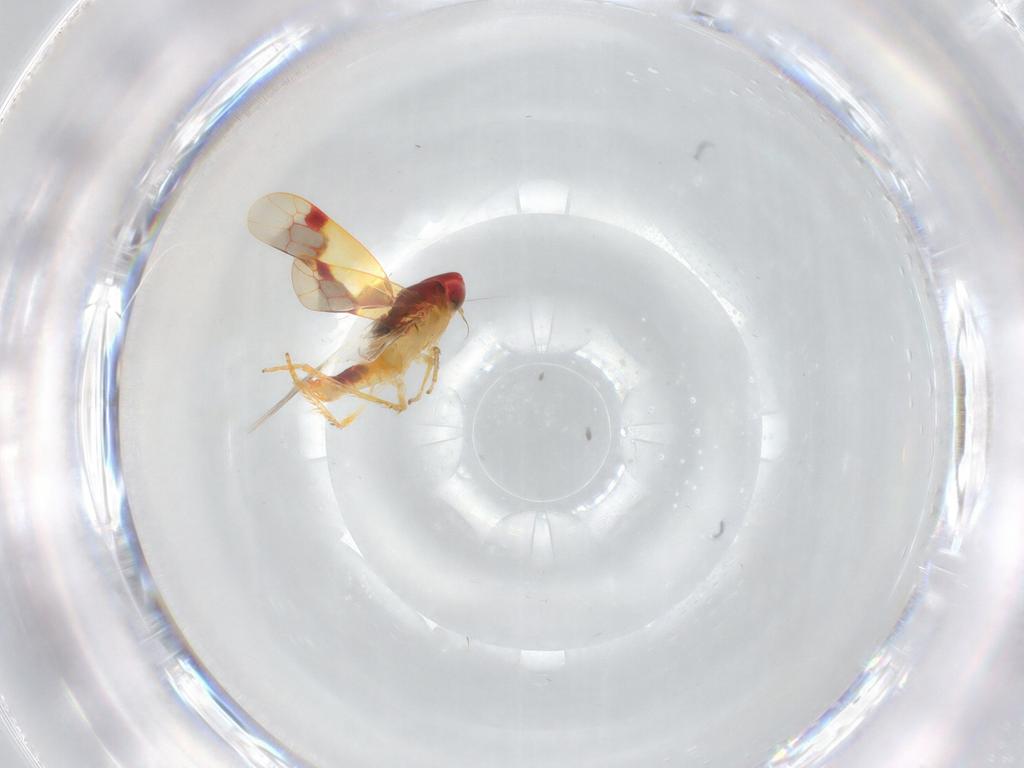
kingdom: Animalia
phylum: Arthropoda
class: Insecta
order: Hemiptera
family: Cicadellidae
